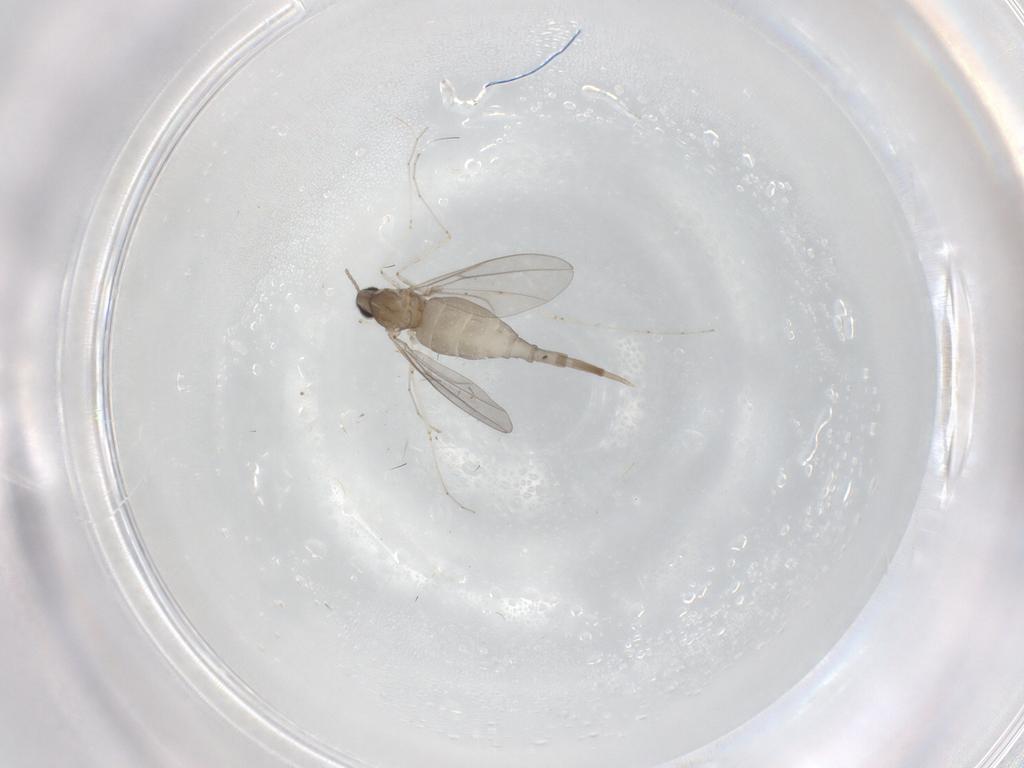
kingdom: Animalia
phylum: Arthropoda
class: Insecta
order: Diptera
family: Cecidomyiidae
